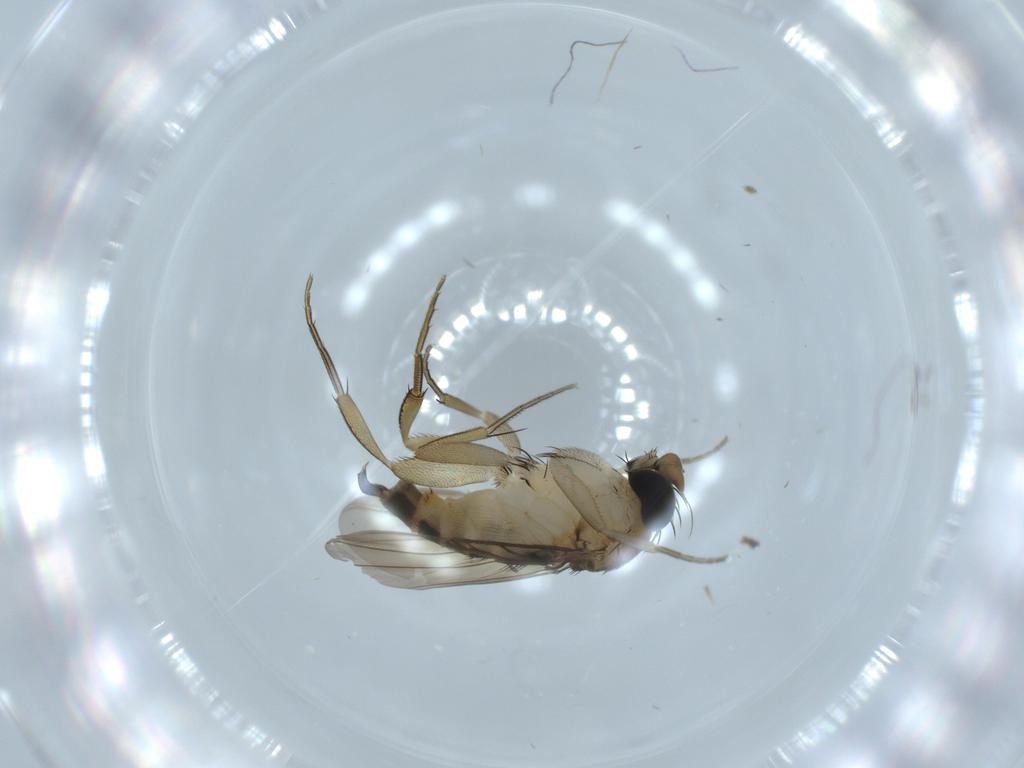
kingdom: Animalia
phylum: Arthropoda
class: Insecta
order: Diptera
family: Phoridae
